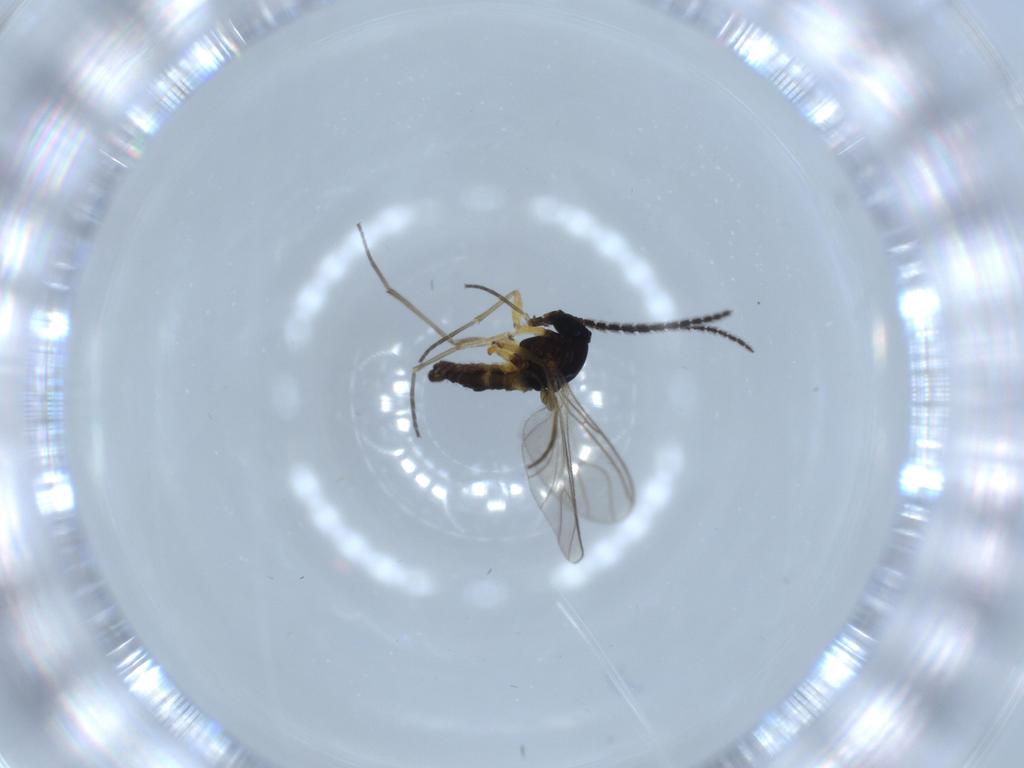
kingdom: Animalia
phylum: Arthropoda
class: Insecta
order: Diptera
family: Sciaridae
